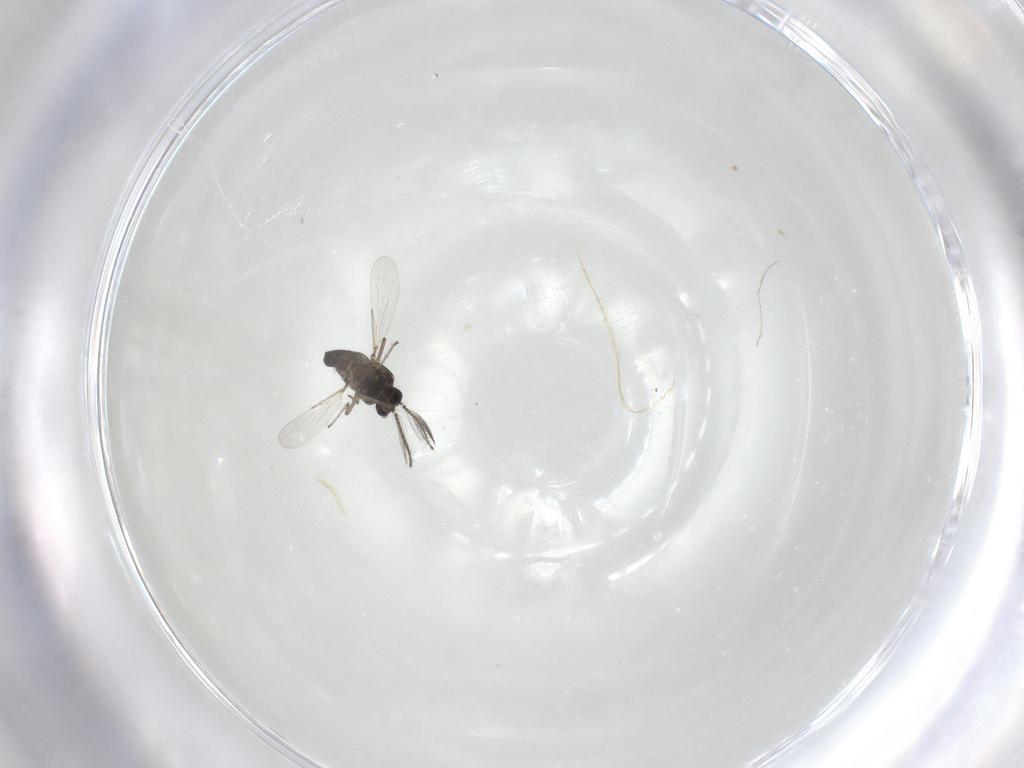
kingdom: Animalia
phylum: Arthropoda
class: Insecta
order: Diptera
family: Ceratopogonidae
